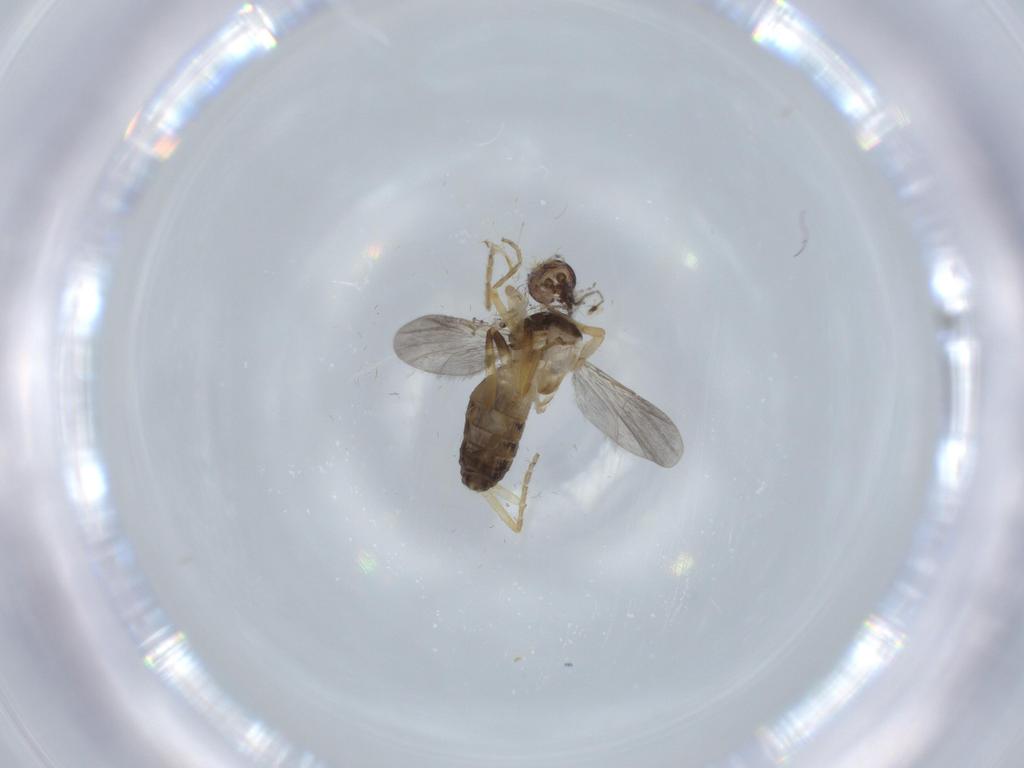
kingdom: Animalia
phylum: Arthropoda
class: Insecta
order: Diptera
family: Ceratopogonidae
